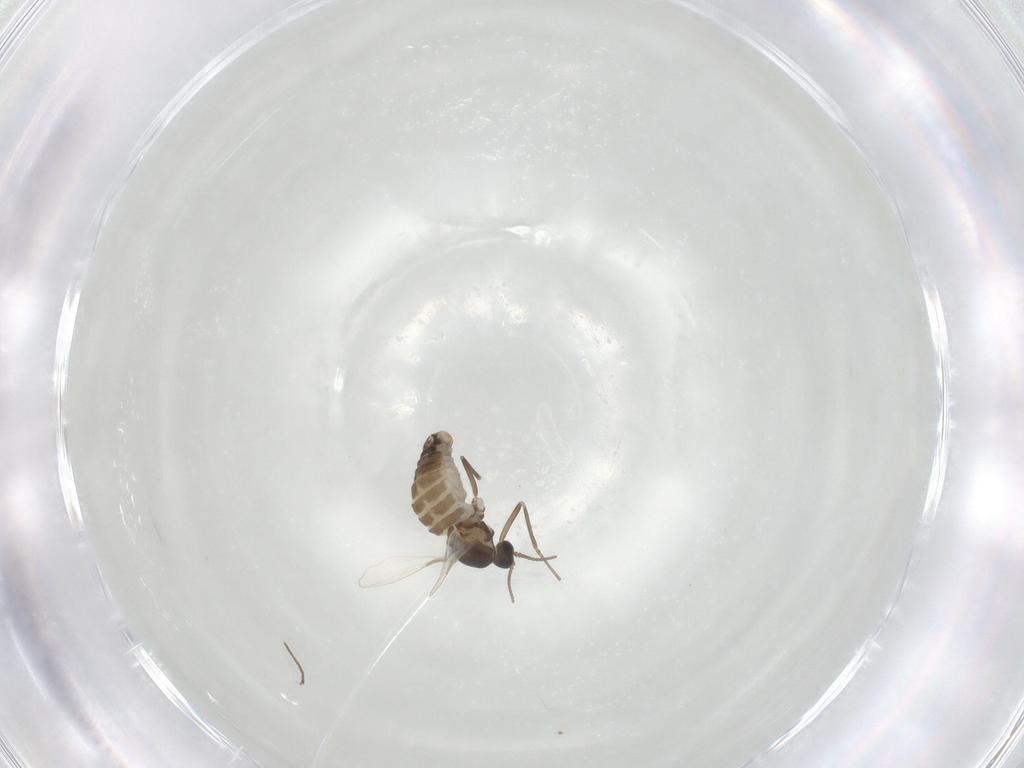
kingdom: Animalia
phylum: Arthropoda
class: Insecta
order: Diptera
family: Cecidomyiidae
